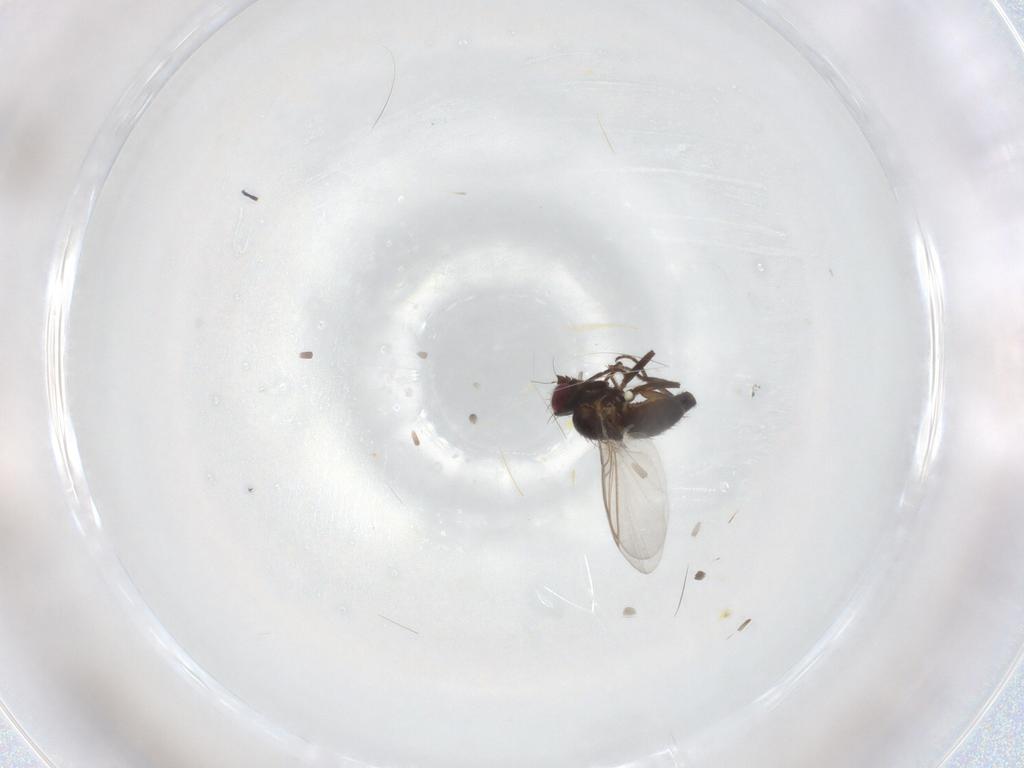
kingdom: Animalia
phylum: Arthropoda
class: Insecta
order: Diptera
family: Agromyzidae
